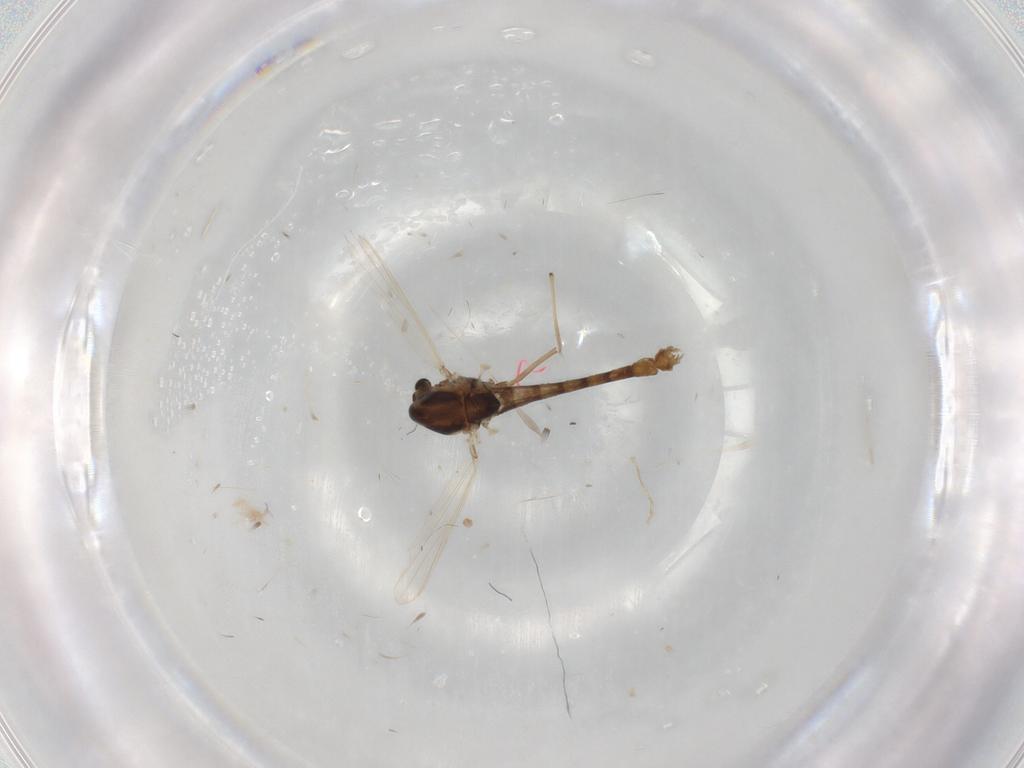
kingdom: Animalia
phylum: Arthropoda
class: Insecta
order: Diptera
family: Chironomidae
